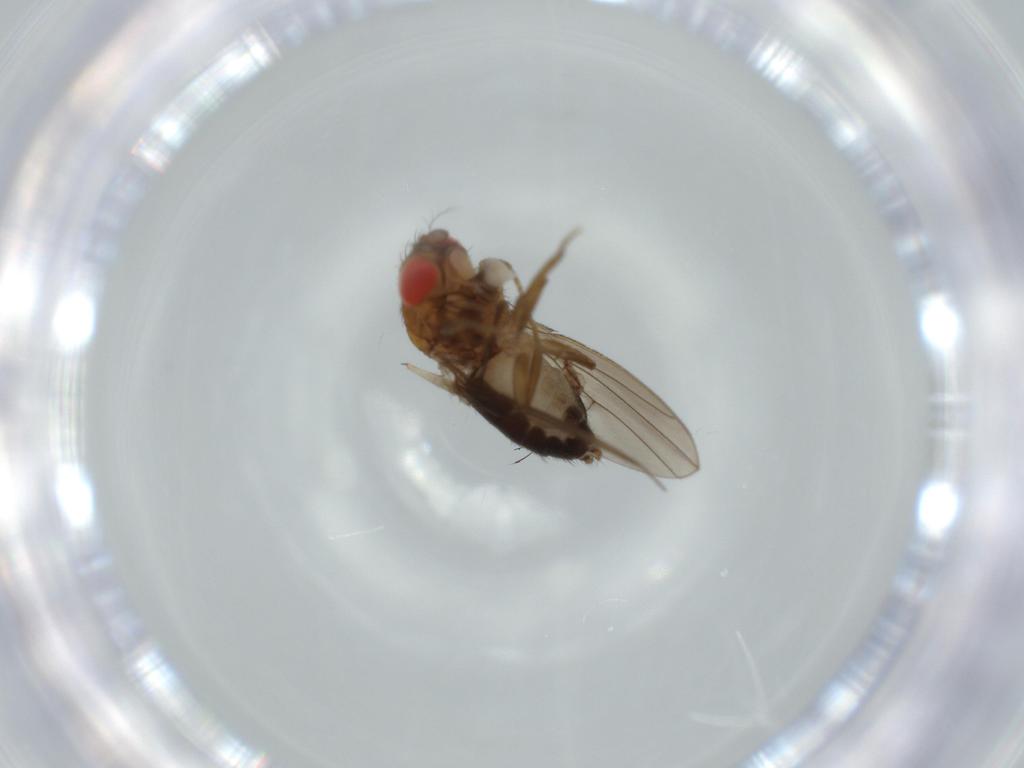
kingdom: Animalia
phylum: Arthropoda
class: Insecta
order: Diptera
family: Drosophilidae
